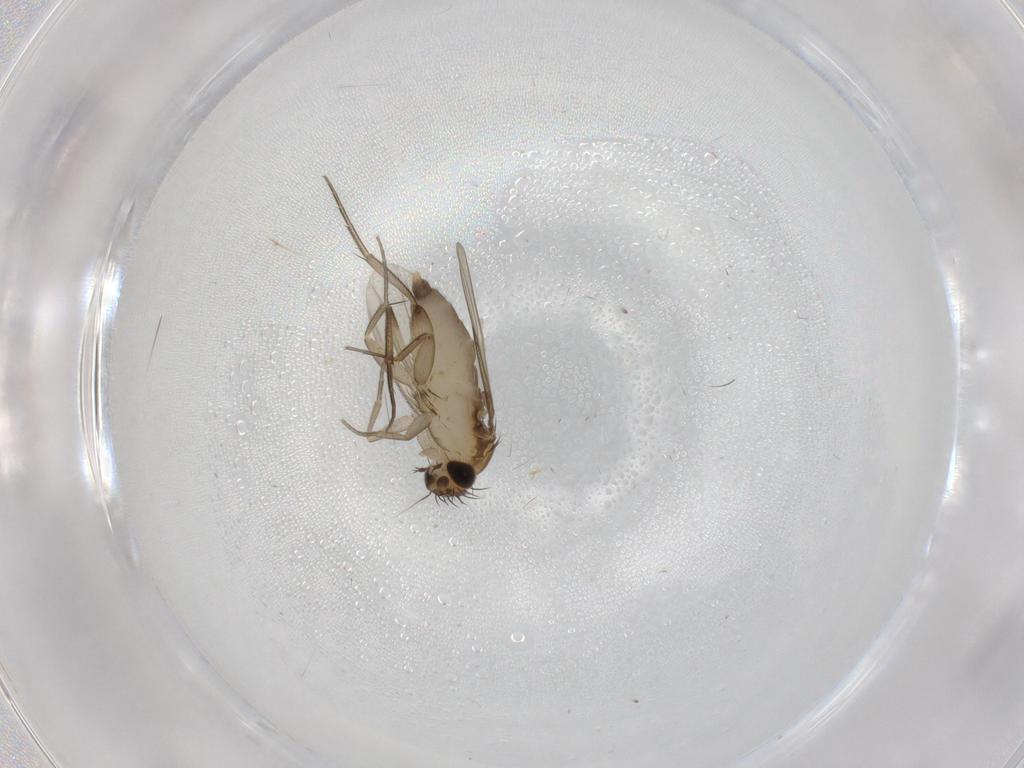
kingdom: Animalia
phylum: Arthropoda
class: Insecta
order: Diptera
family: Phoridae
